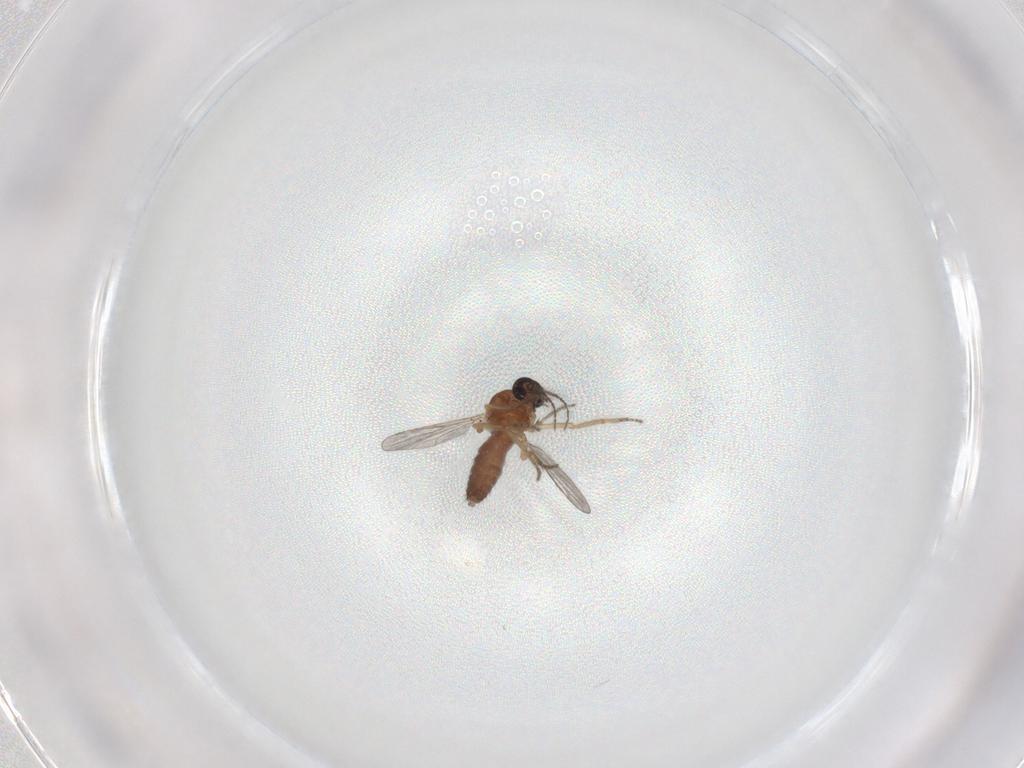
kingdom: Animalia
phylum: Arthropoda
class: Insecta
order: Diptera
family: Ceratopogonidae
